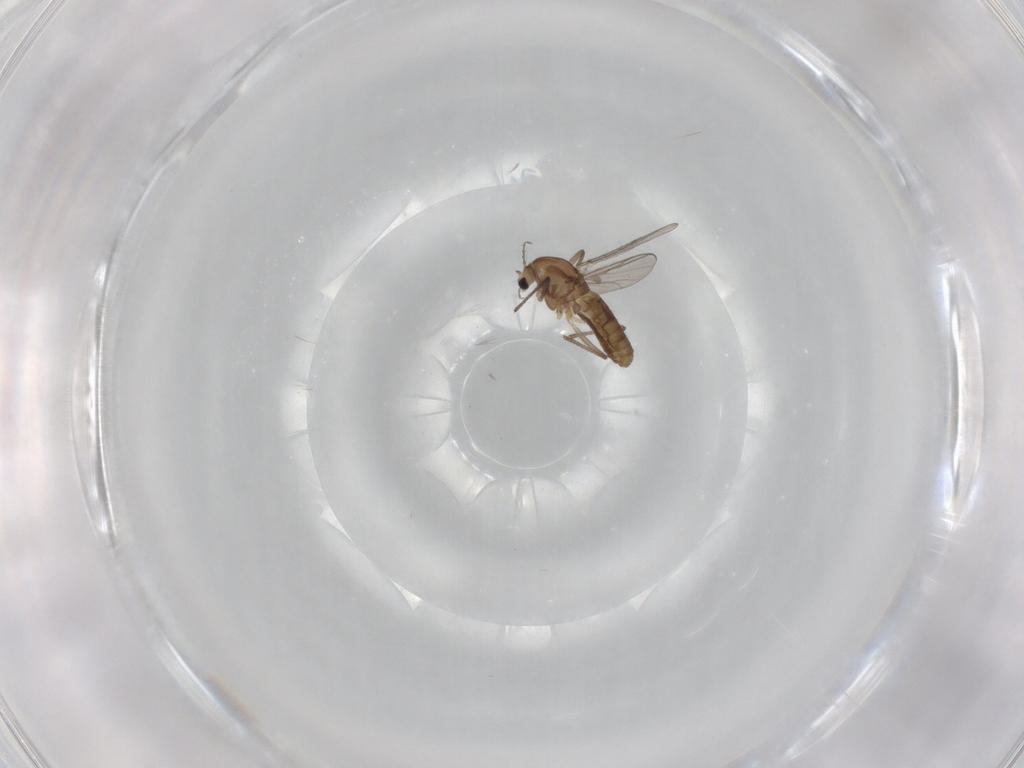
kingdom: Animalia
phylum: Arthropoda
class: Insecta
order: Diptera
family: Chironomidae
